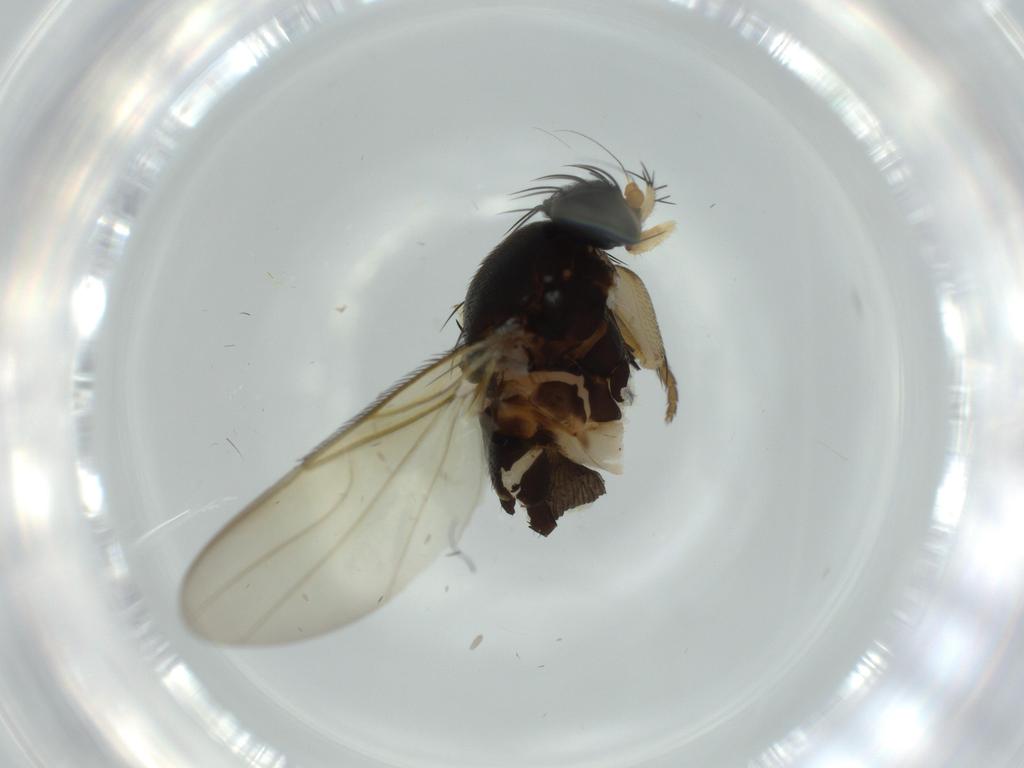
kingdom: Animalia
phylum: Arthropoda
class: Insecta
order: Diptera
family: Phoridae
